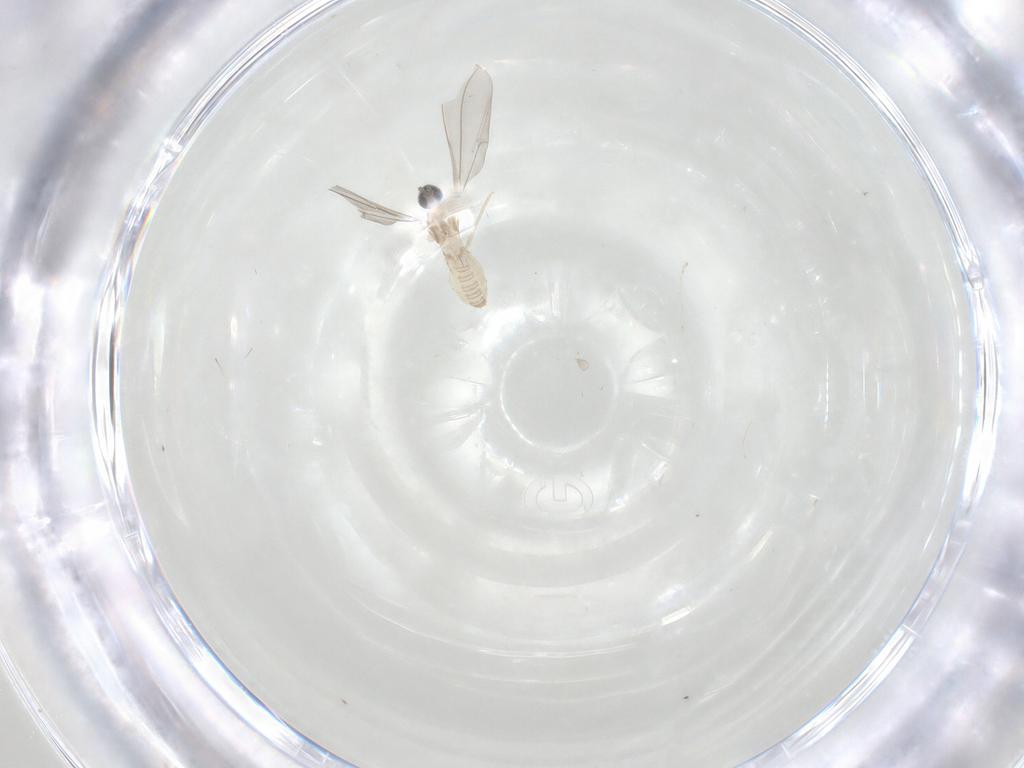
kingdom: Animalia
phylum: Arthropoda
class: Insecta
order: Diptera
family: Cecidomyiidae
